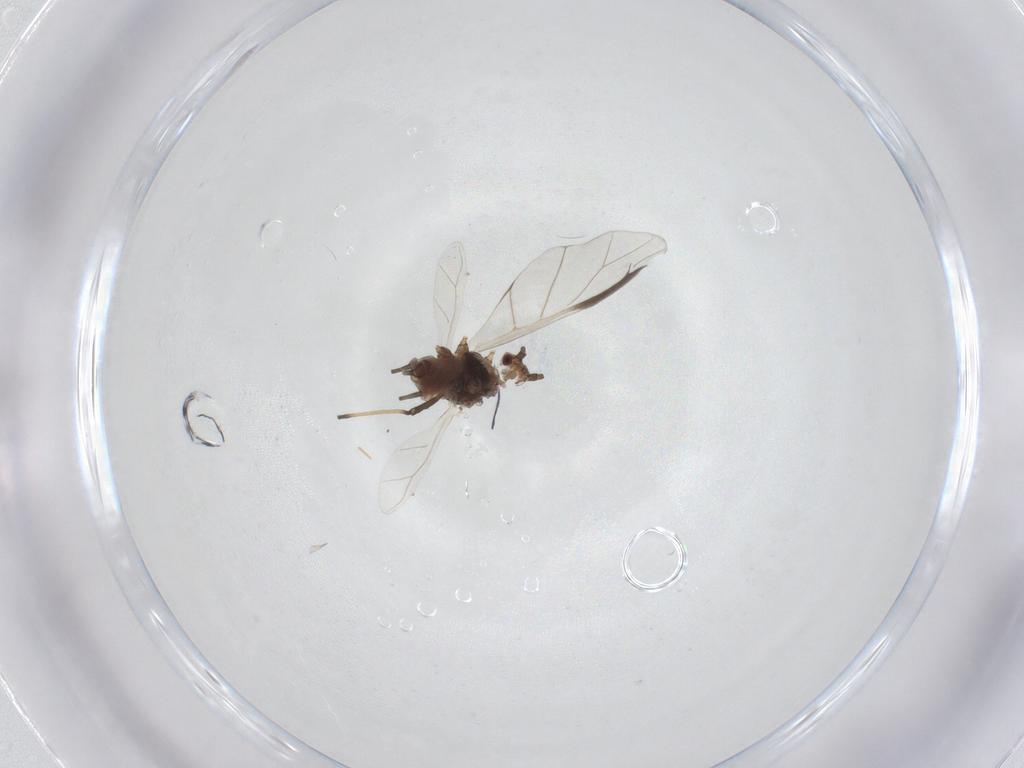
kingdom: Animalia
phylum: Arthropoda
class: Insecta
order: Hemiptera
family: Aphididae
